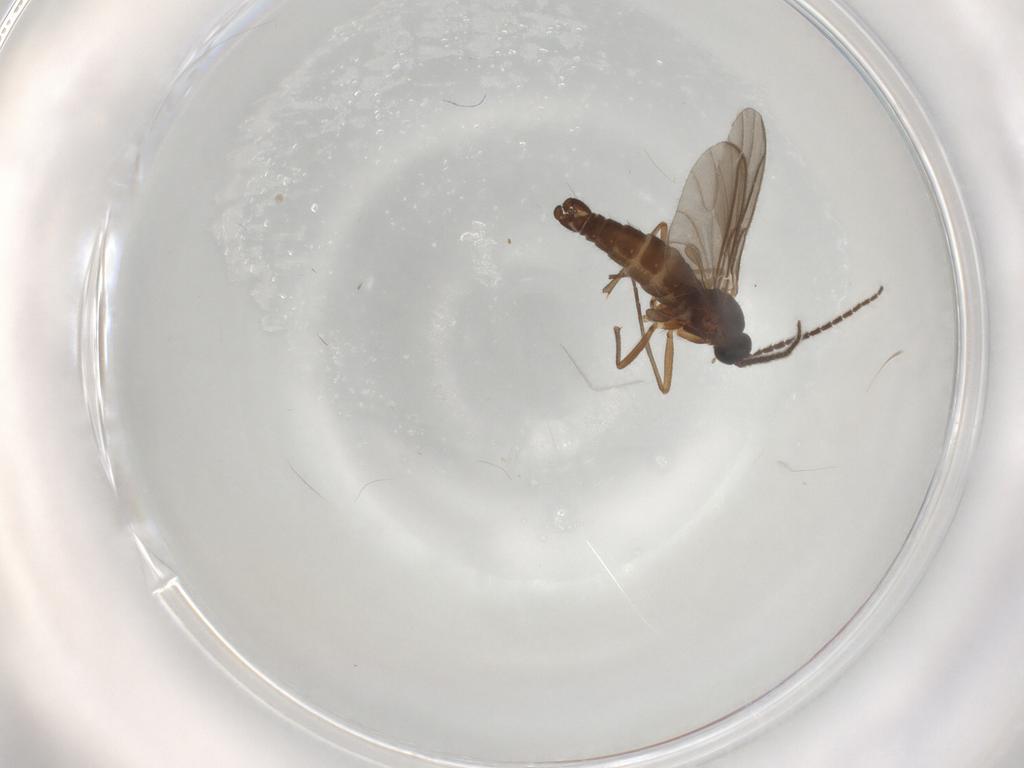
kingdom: Animalia
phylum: Arthropoda
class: Insecta
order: Diptera
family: Sciaridae
